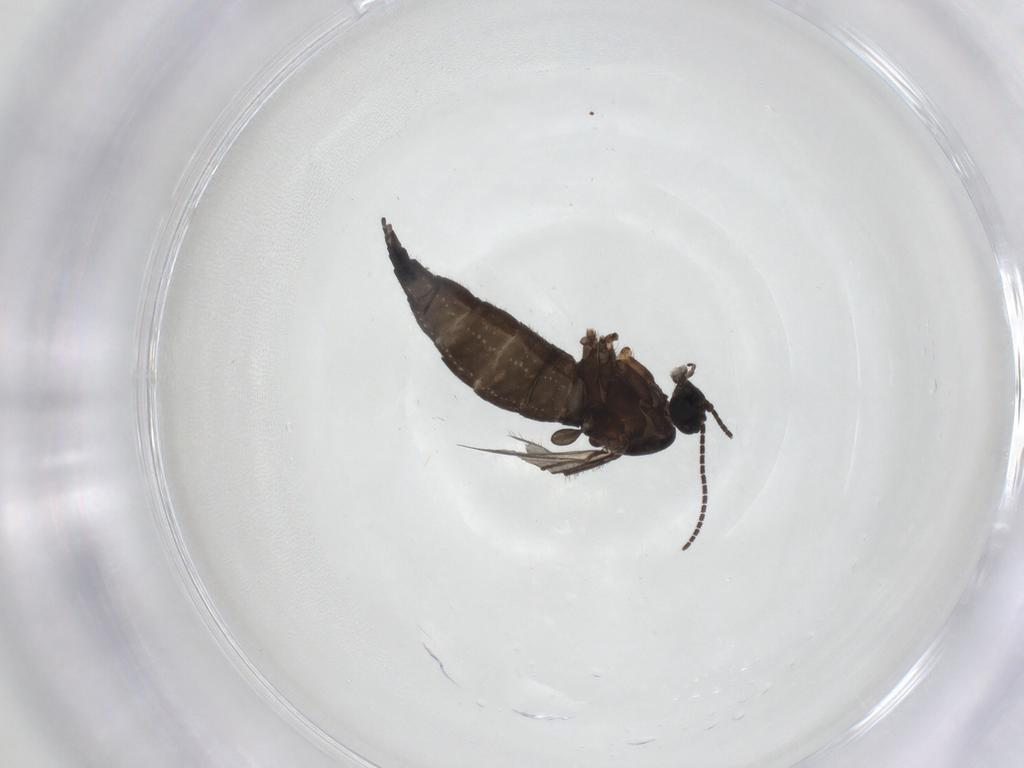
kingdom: Animalia
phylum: Arthropoda
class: Insecta
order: Diptera
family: Sciaridae
